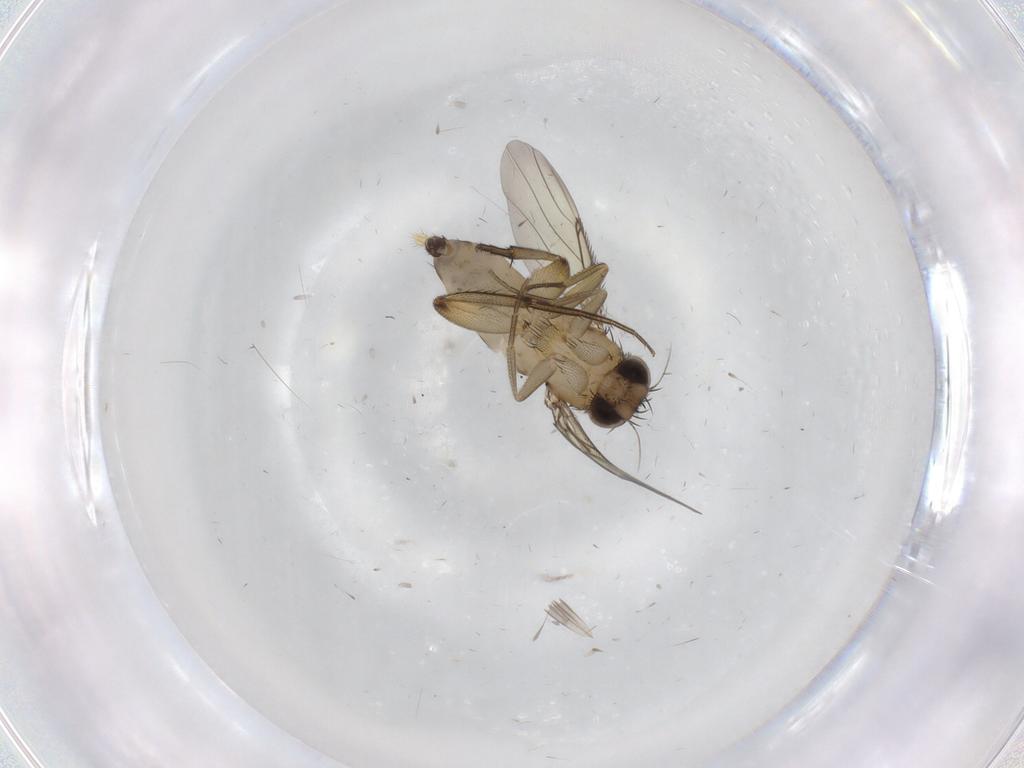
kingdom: Animalia
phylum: Arthropoda
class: Insecta
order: Diptera
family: Phoridae
